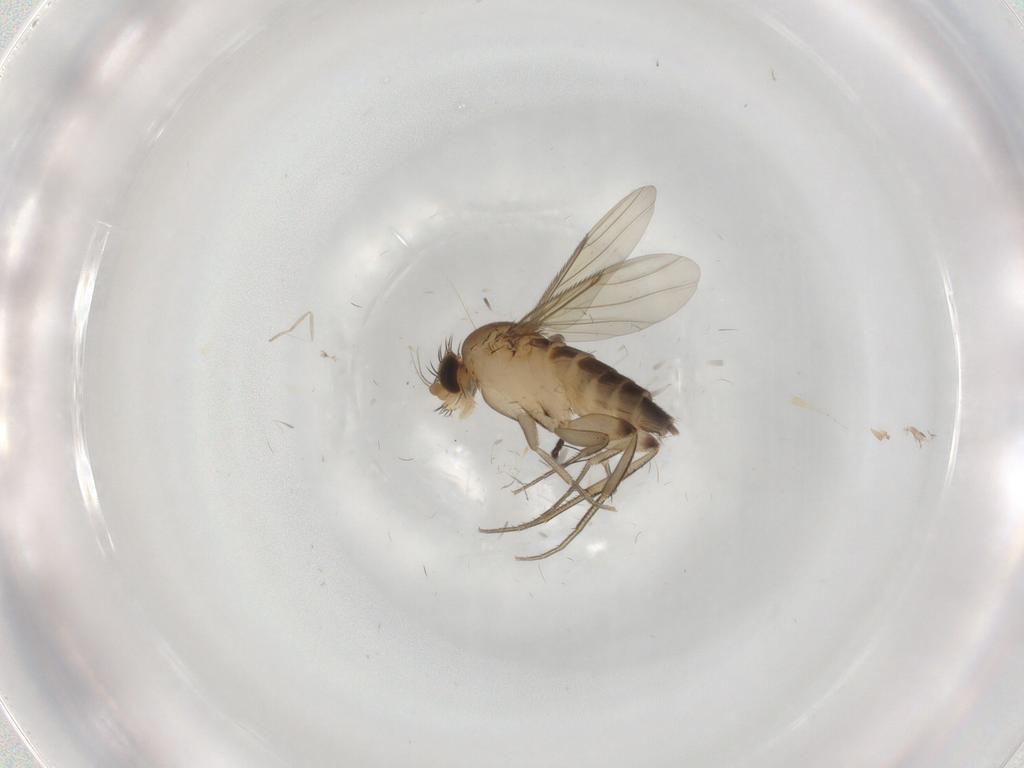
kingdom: Animalia
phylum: Arthropoda
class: Insecta
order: Diptera
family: Cecidomyiidae
